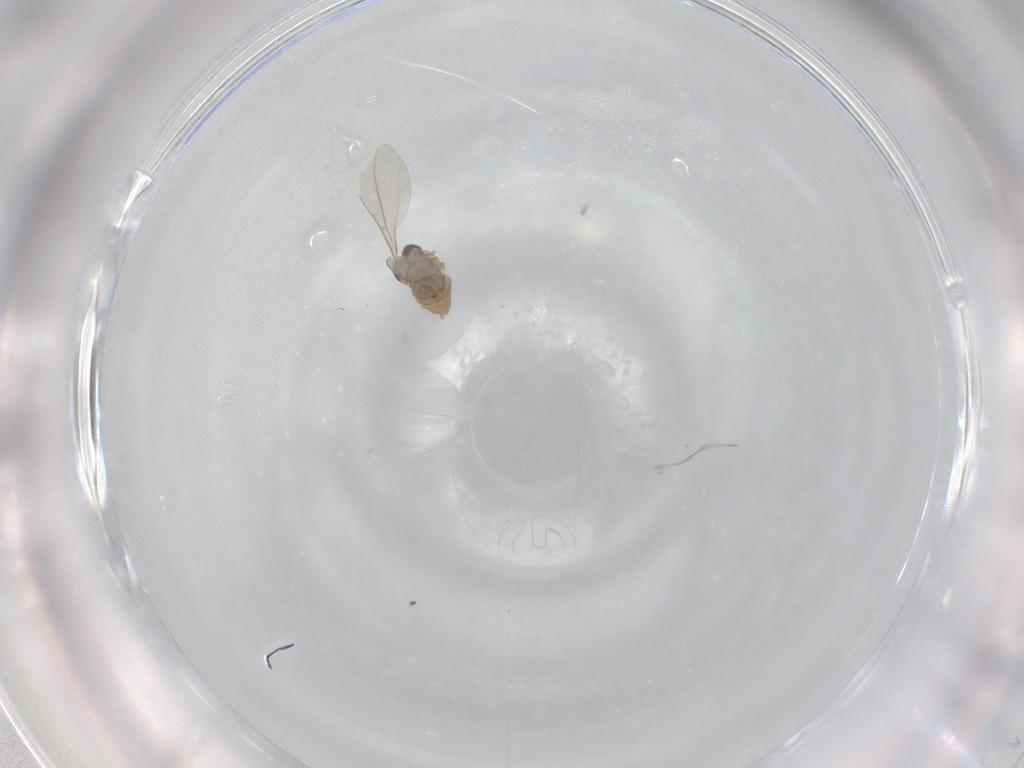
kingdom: Animalia
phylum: Arthropoda
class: Insecta
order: Diptera
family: Cecidomyiidae
